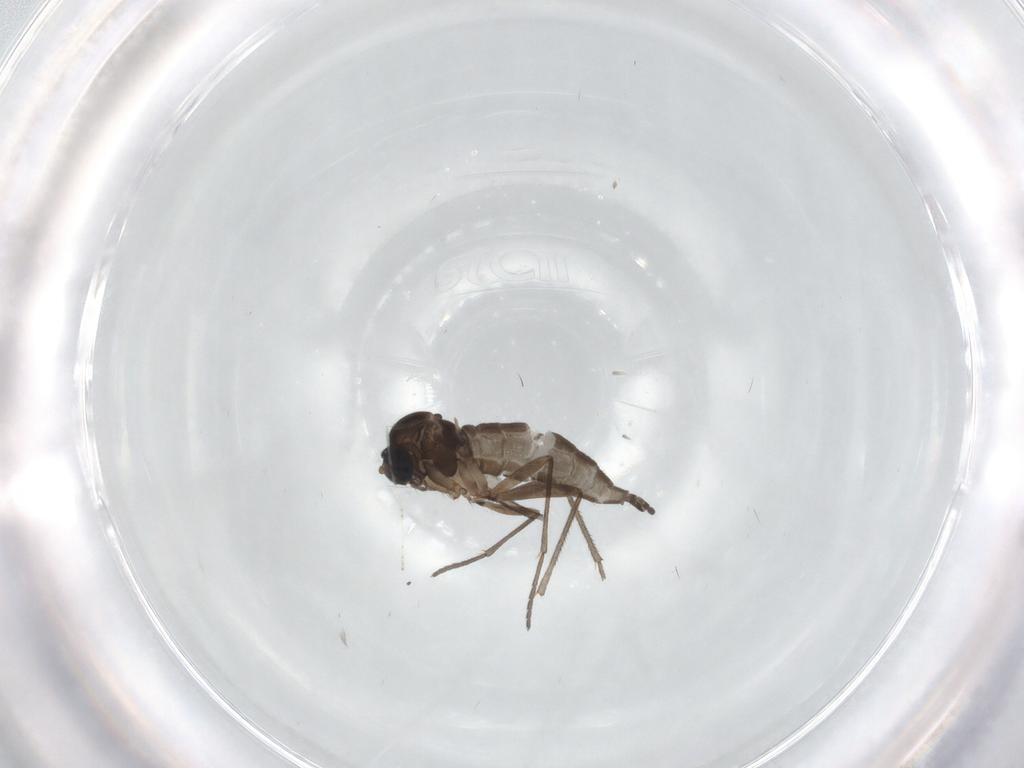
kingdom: Animalia
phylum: Arthropoda
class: Insecta
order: Diptera
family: Sciaridae
